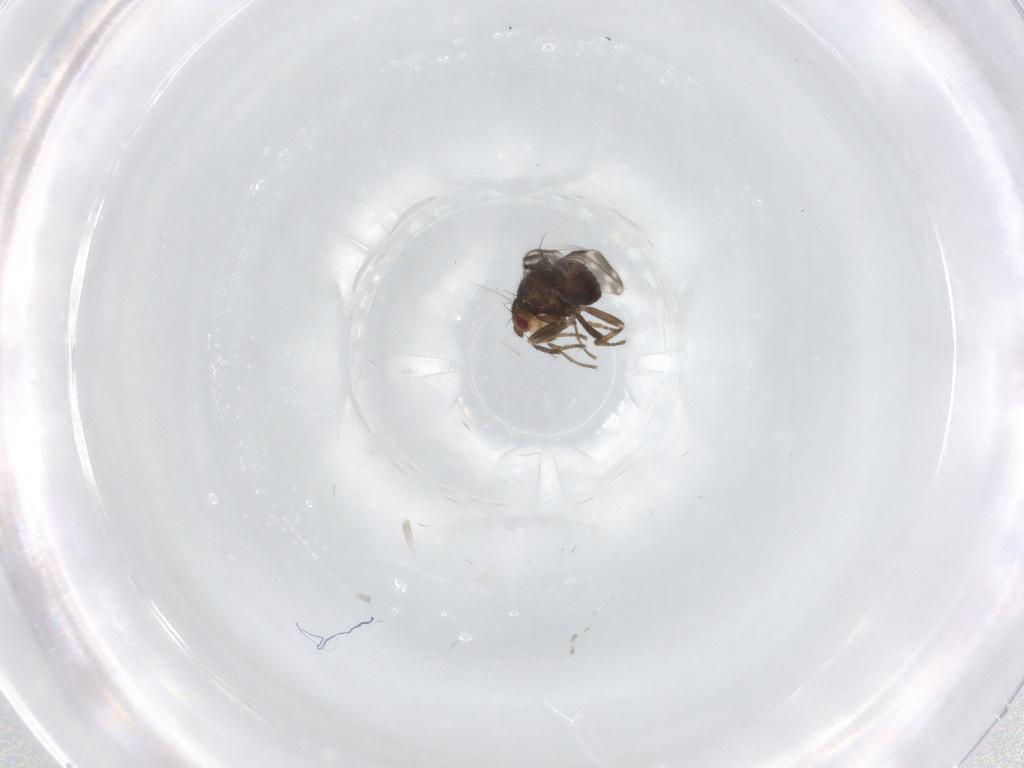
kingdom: Animalia
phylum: Arthropoda
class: Insecta
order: Diptera
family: Sphaeroceridae
